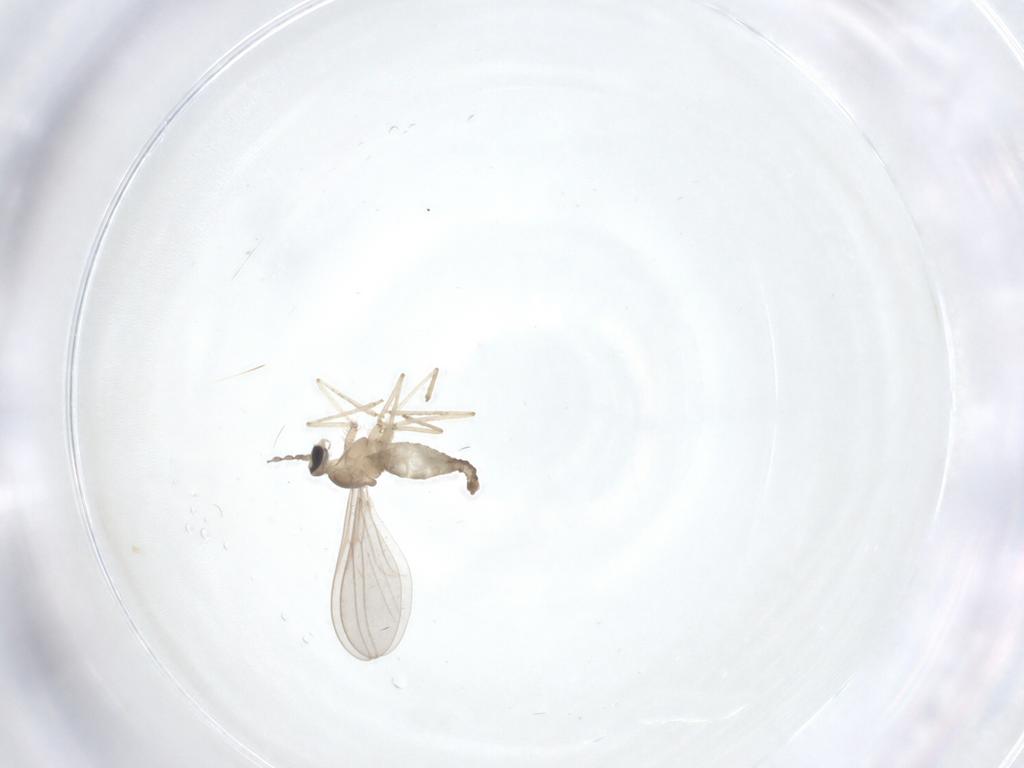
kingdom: Animalia
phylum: Arthropoda
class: Insecta
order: Diptera
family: Cecidomyiidae
